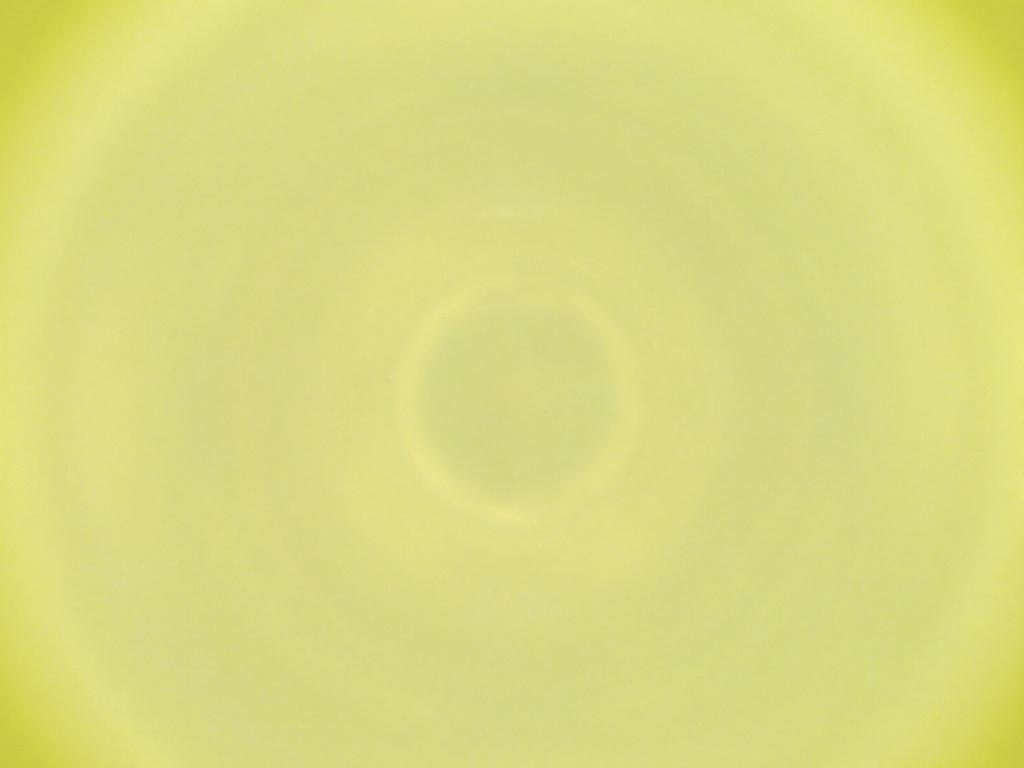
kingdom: Animalia
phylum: Arthropoda
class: Insecta
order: Diptera
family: Cecidomyiidae
